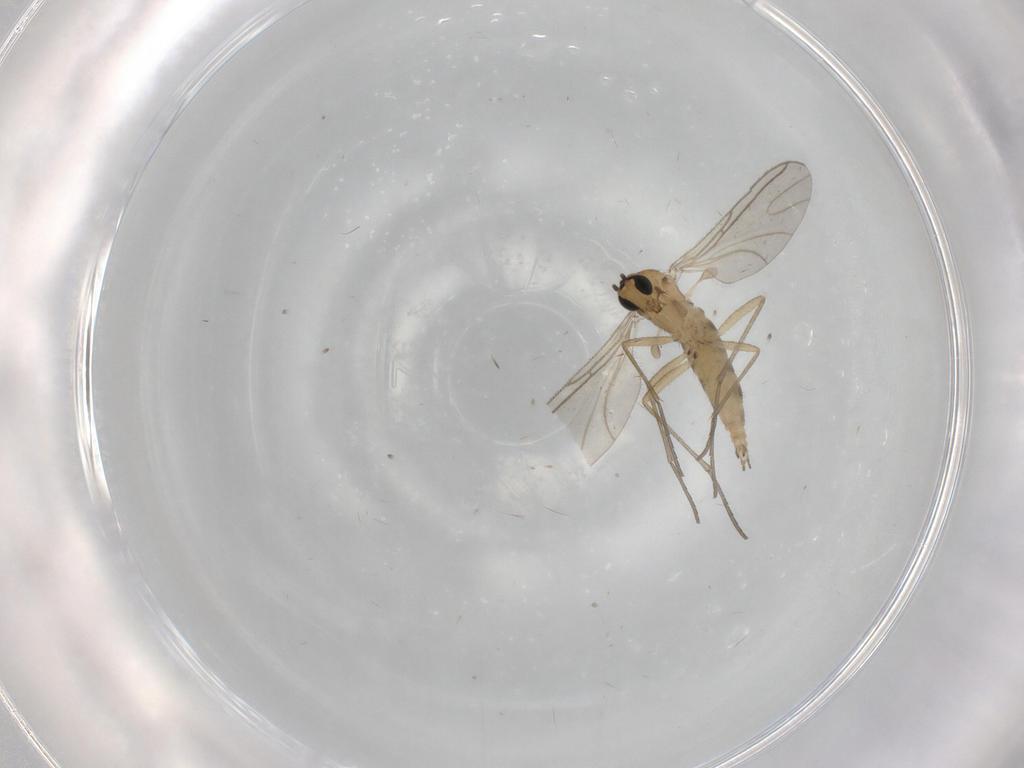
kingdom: Animalia
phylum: Arthropoda
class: Insecta
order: Diptera
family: Sciaridae
